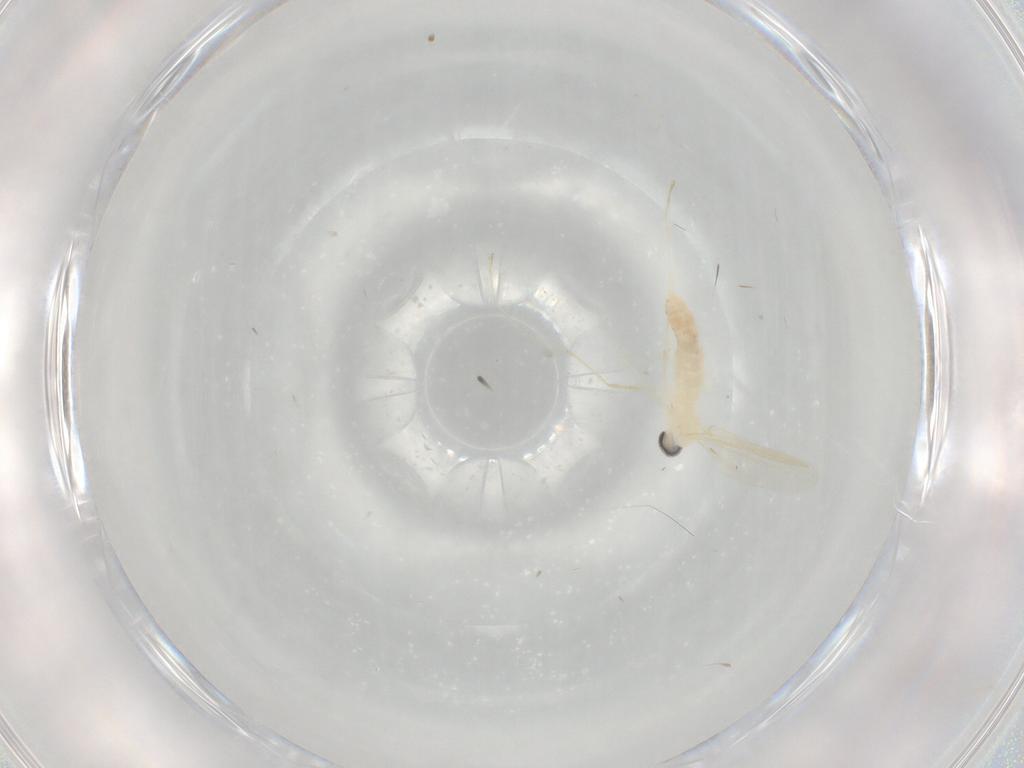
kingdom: Animalia
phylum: Arthropoda
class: Insecta
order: Diptera
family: Cecidomyiidae
